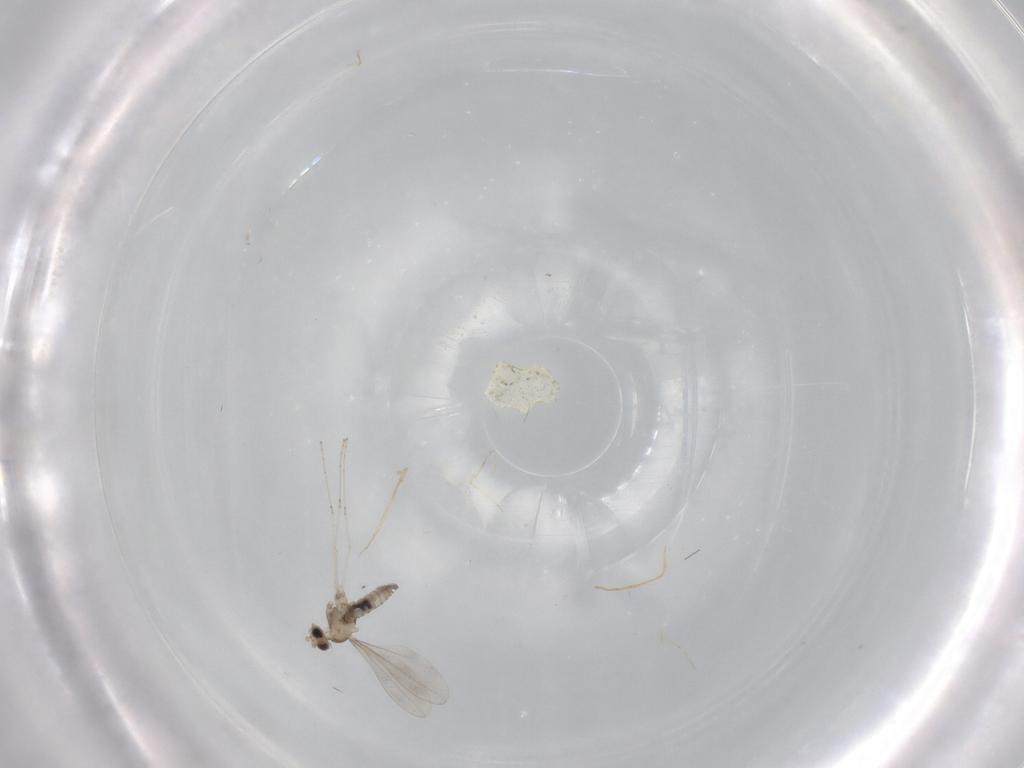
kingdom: Animalia
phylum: Arthropoda
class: Insecta
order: Diptera
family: Cecidomyiidae
